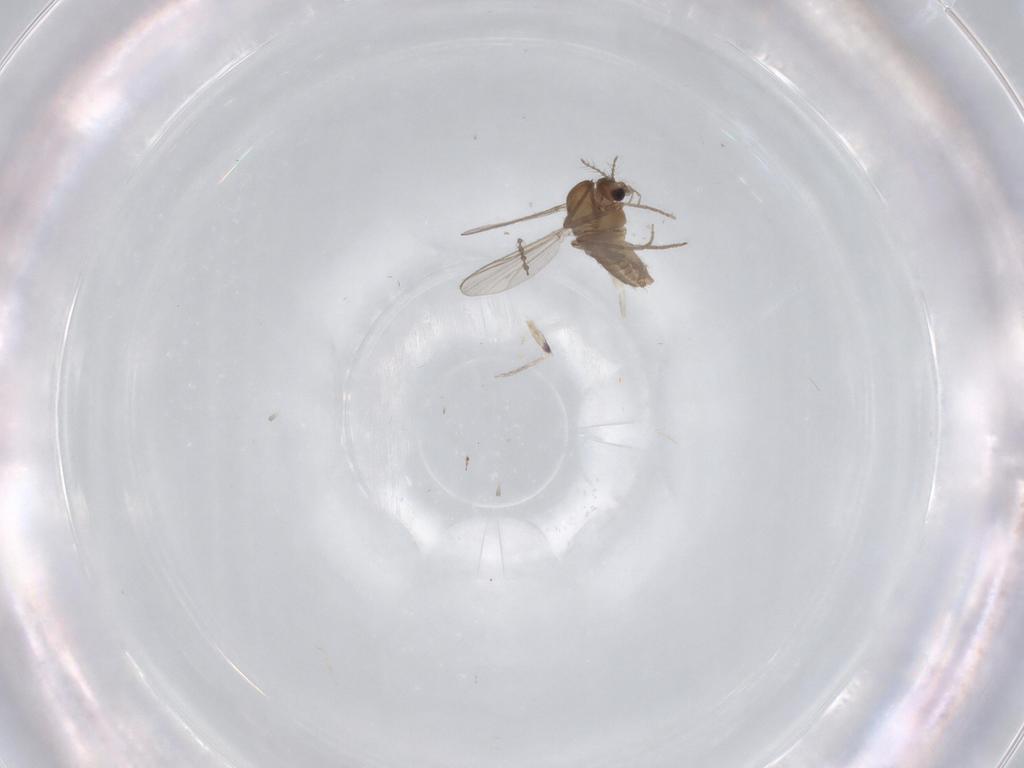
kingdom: Animalia
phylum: Arthropoda
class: Insecta
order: Diptera
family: Chironomidae
